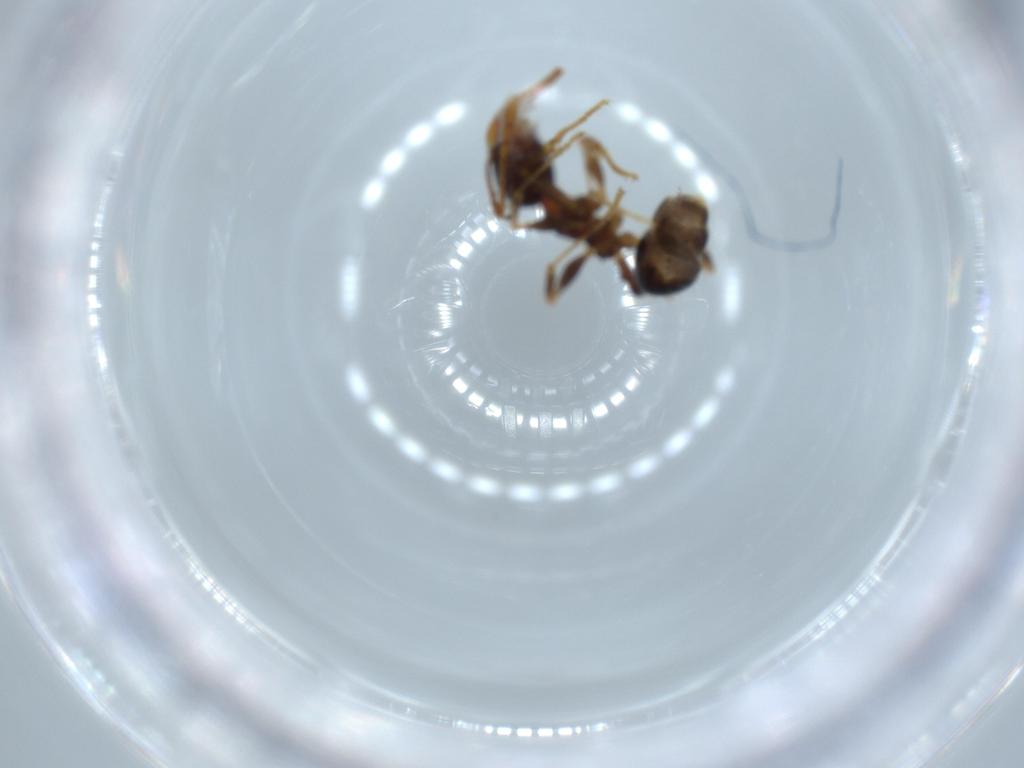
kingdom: Animalia
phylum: Arthropoda
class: Insecta
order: Hymenoptera
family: Formicidae
